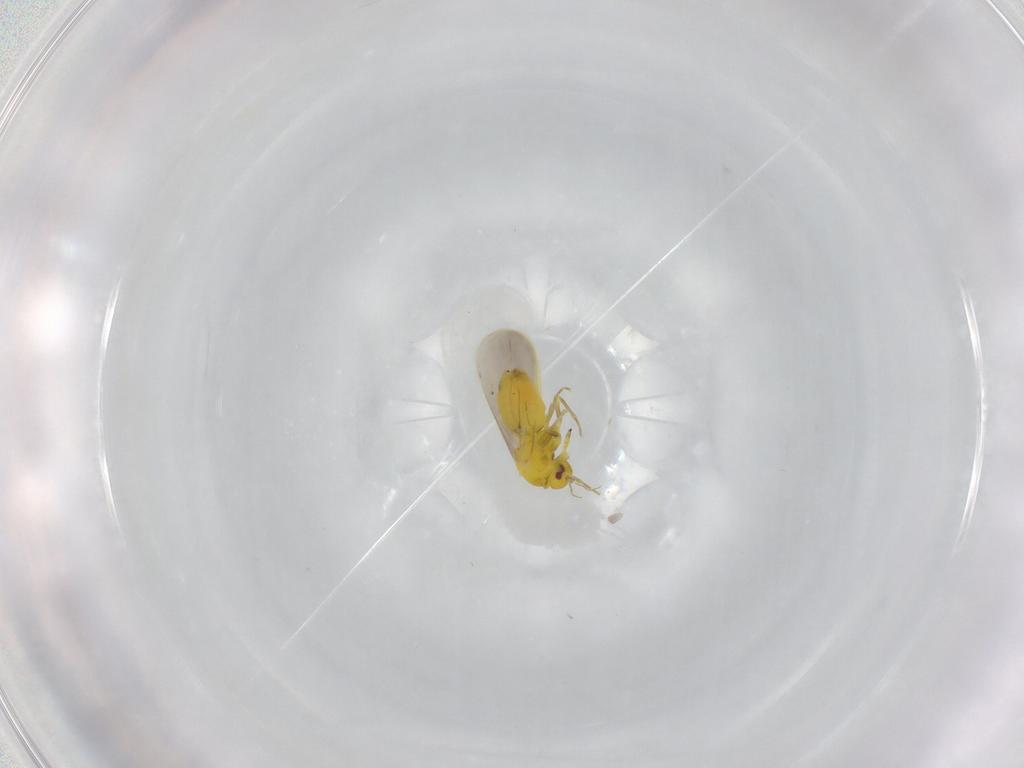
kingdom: Animalia
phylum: Arthropoda
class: Insecta
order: Hemiptera
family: Aleyrodidae
